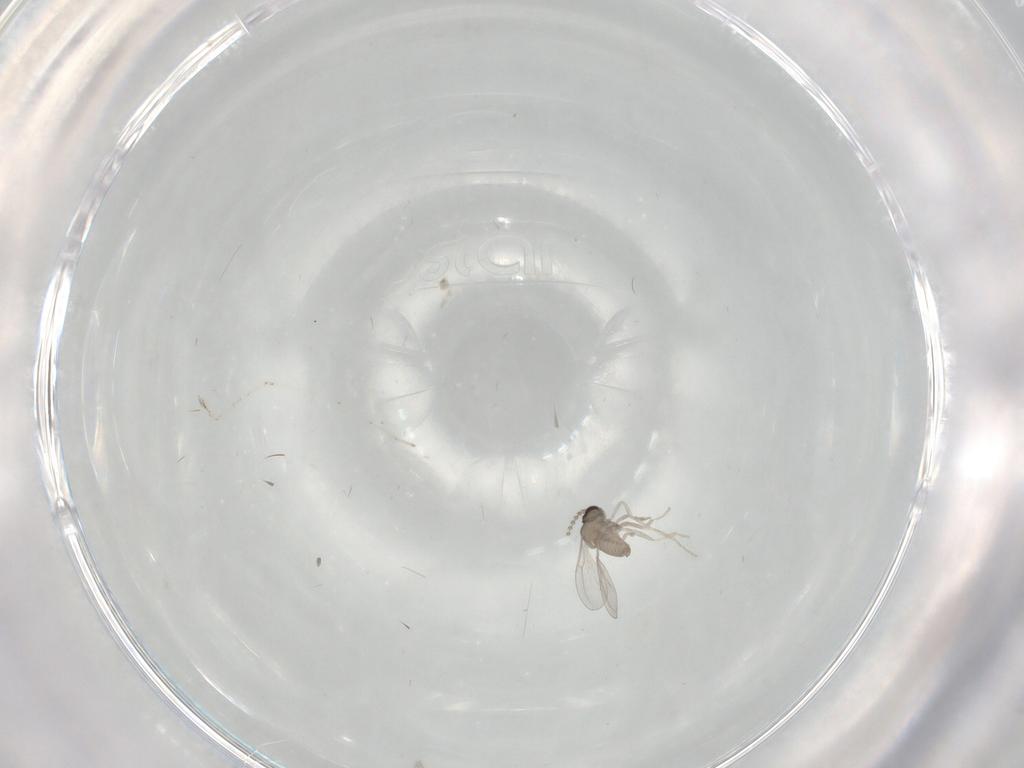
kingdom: Animalia
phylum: Arthropoda
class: Insecta
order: Diptera
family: Cecidomyiidae
